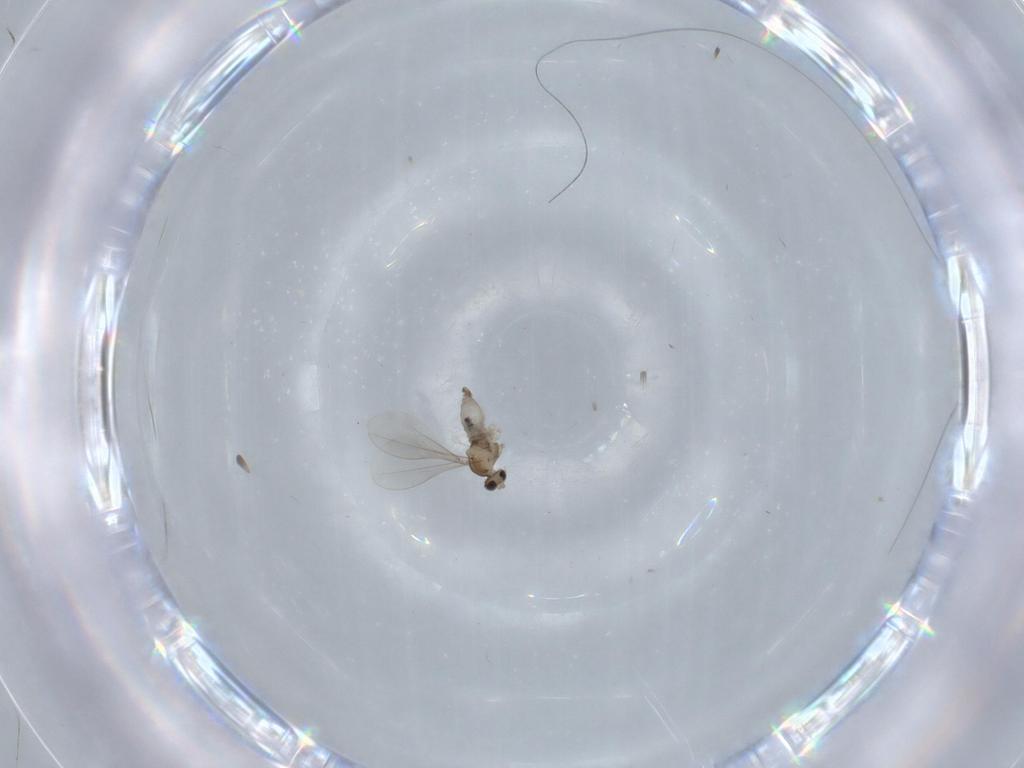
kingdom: Animalia
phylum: Arthropoda
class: Insecta
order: Diptera
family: Cecidomyiidae
